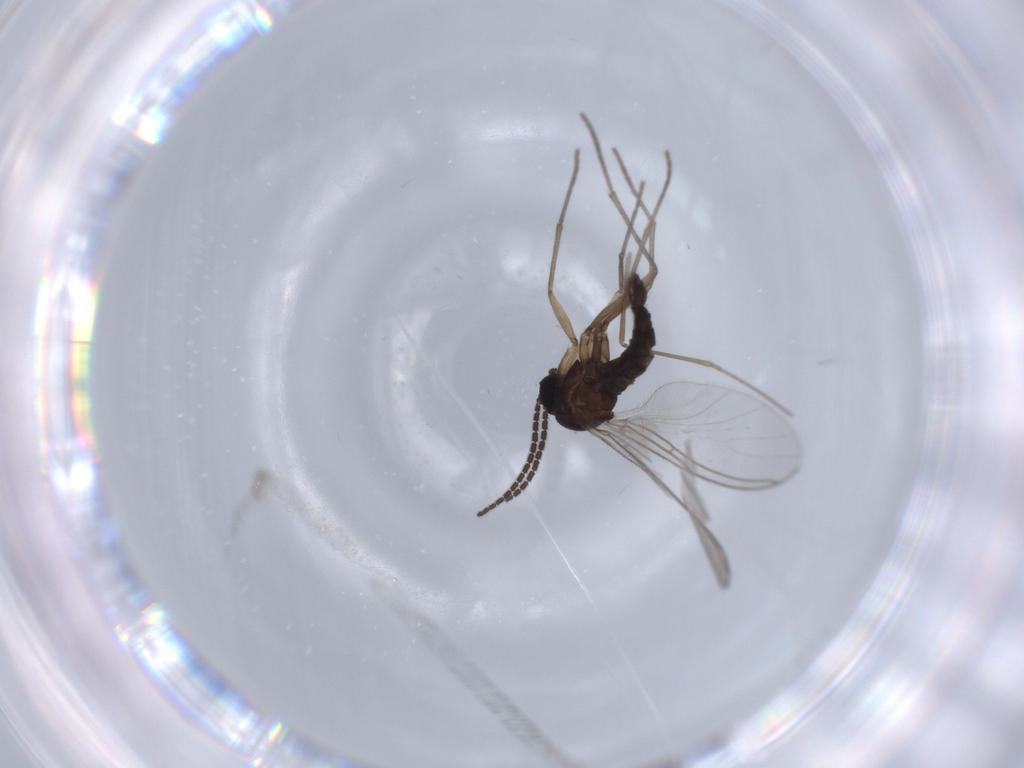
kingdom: Animalia
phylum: Arthropoda
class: Insecta
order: Diptera
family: Sciaridae
